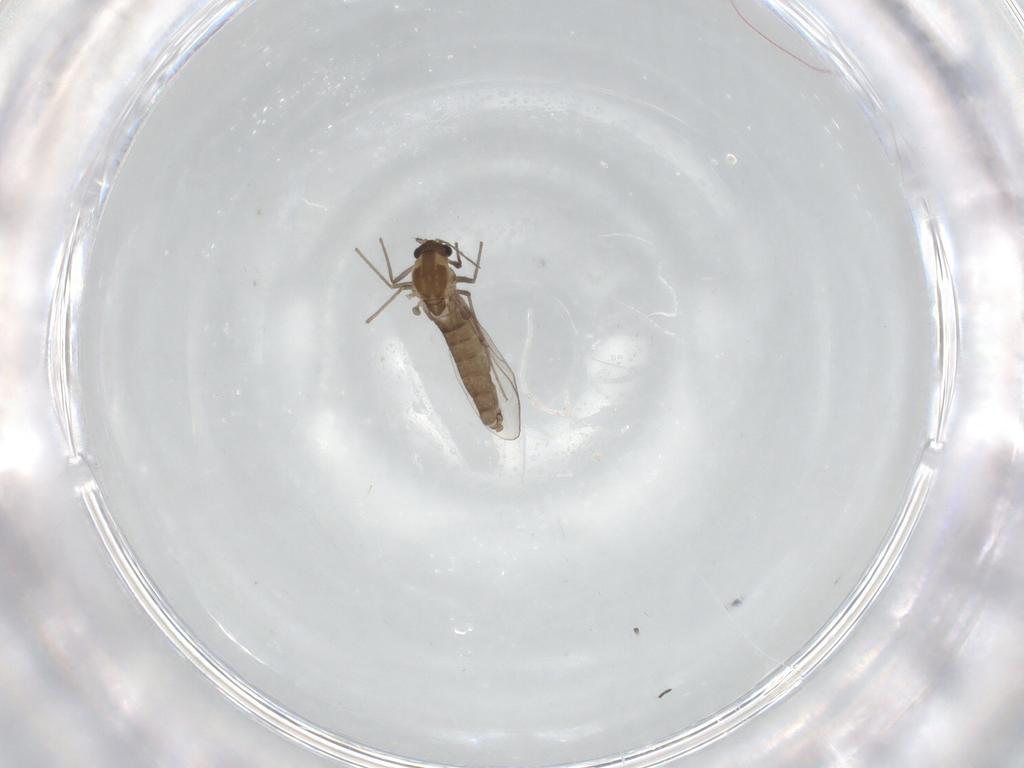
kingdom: Animalia
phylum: Arthropoda
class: Insecta
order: Diptera
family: Chironomidae
